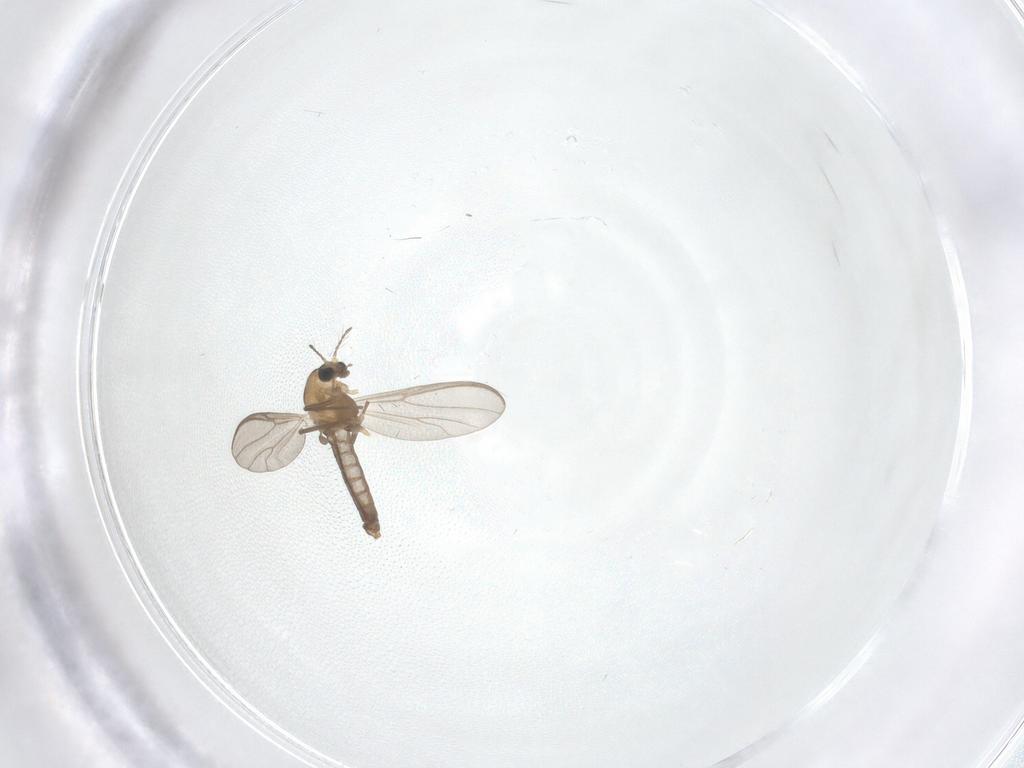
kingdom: Animalia
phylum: Arthropoda
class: Insecta
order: Diptera
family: Chironomidae
